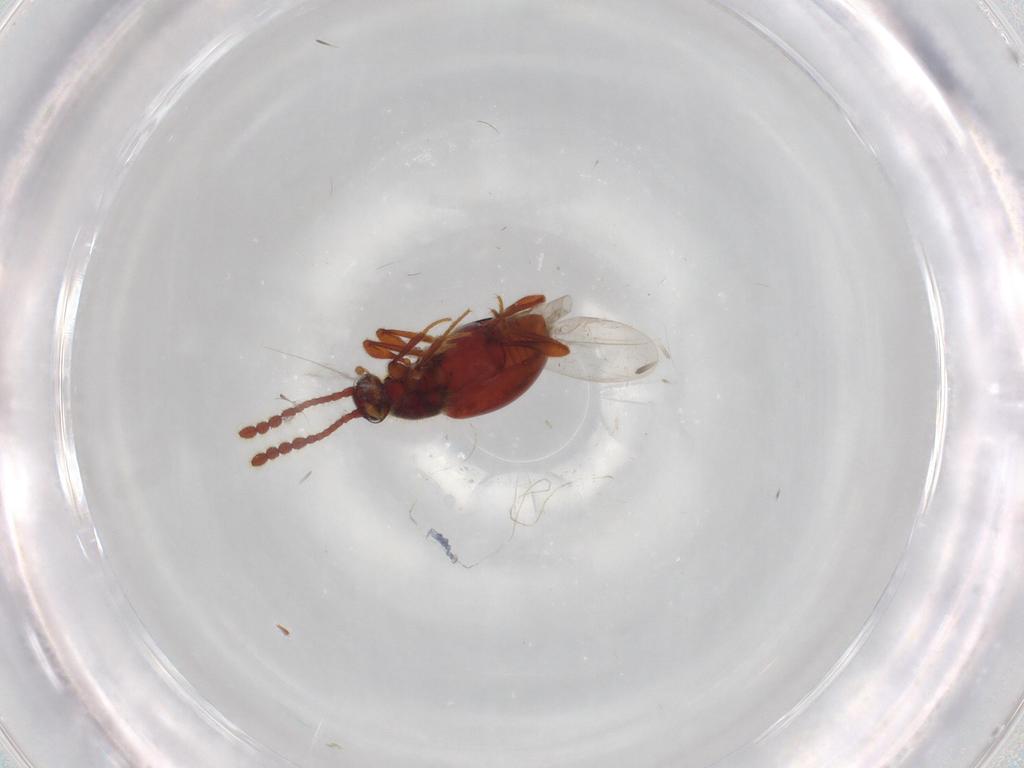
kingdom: Animalia
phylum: Arthropoda
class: Insecta
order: Coleoptera
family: Staphylinidae
